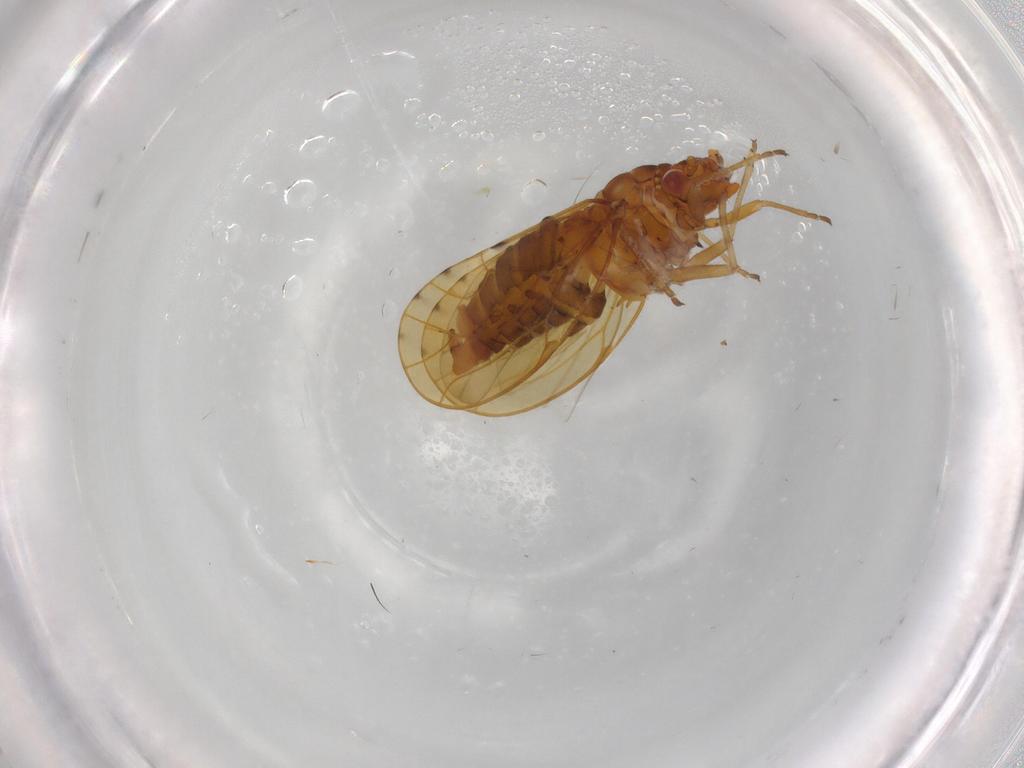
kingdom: Animalia
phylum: Arthropoda
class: Insecta
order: Hemiptera
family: Psylloidea_incertae_sedis
